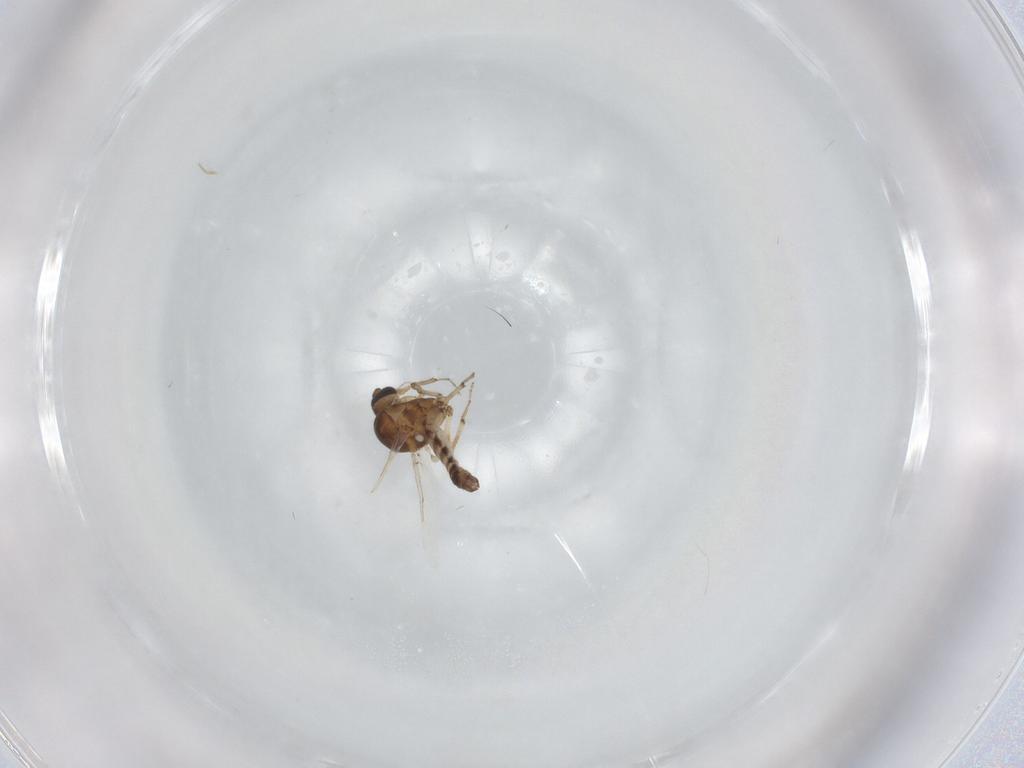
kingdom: Animalia
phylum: Arthropoda
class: Insecta
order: Diptera
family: Ceratopogonidae
